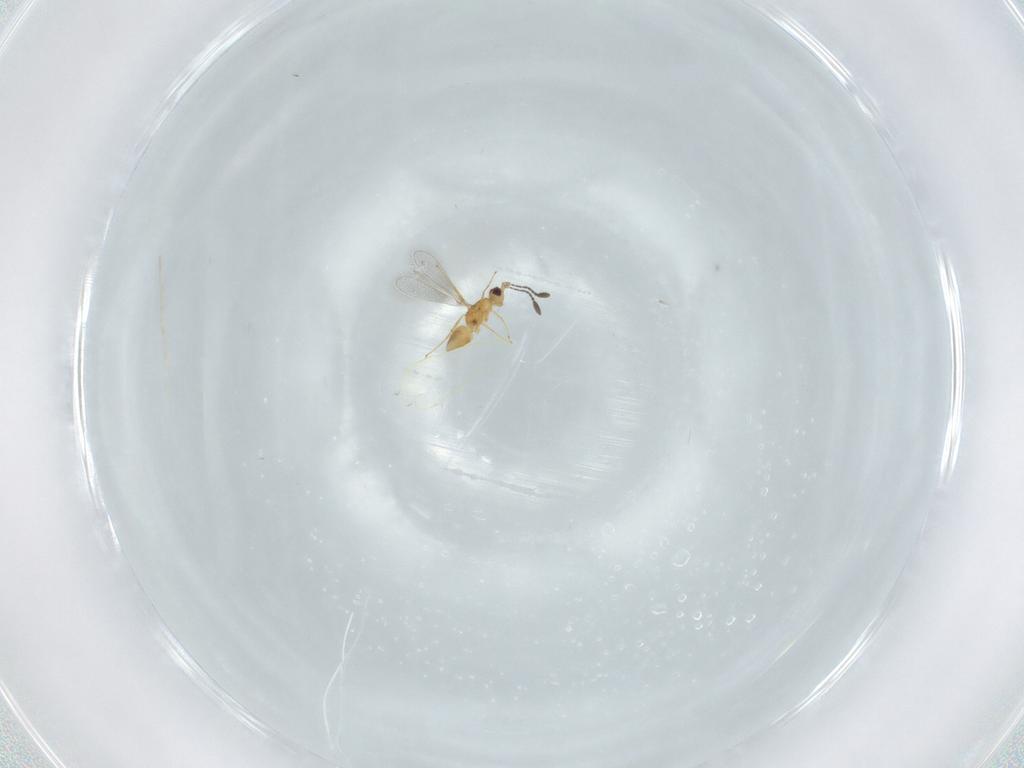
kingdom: Animalia
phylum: Arthropoda
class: Insecta
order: Hymenoptera
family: Mymaridae
